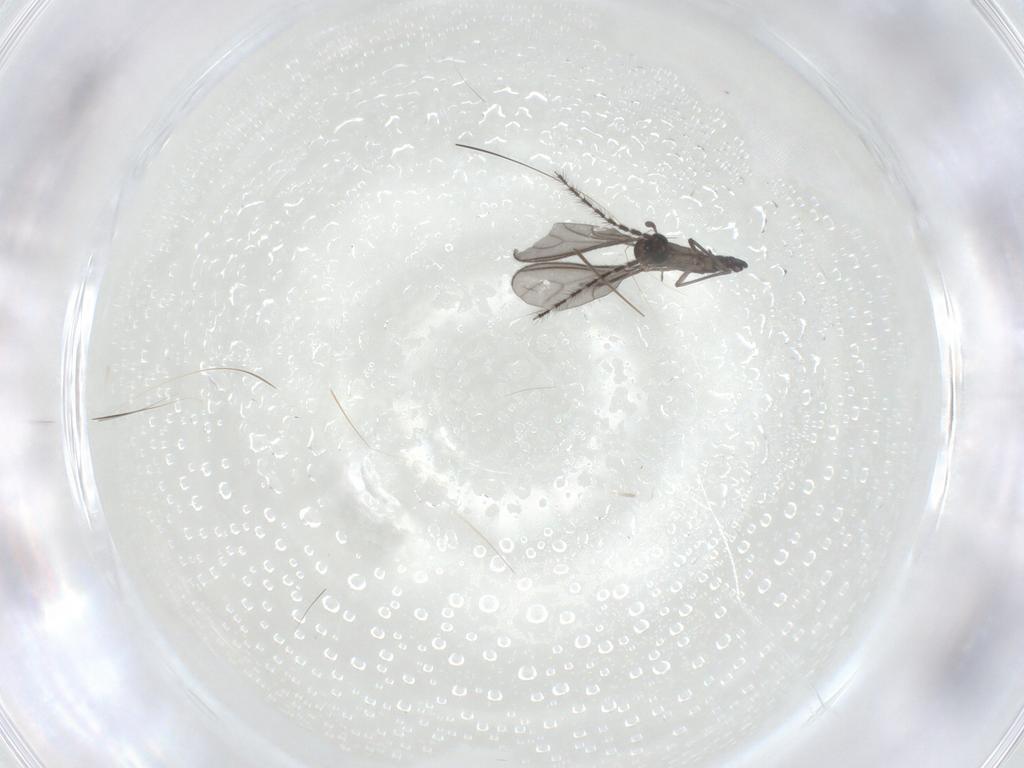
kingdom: Animalia
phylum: Arthropoda
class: Insecta
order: Diptera
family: Sciaridae
